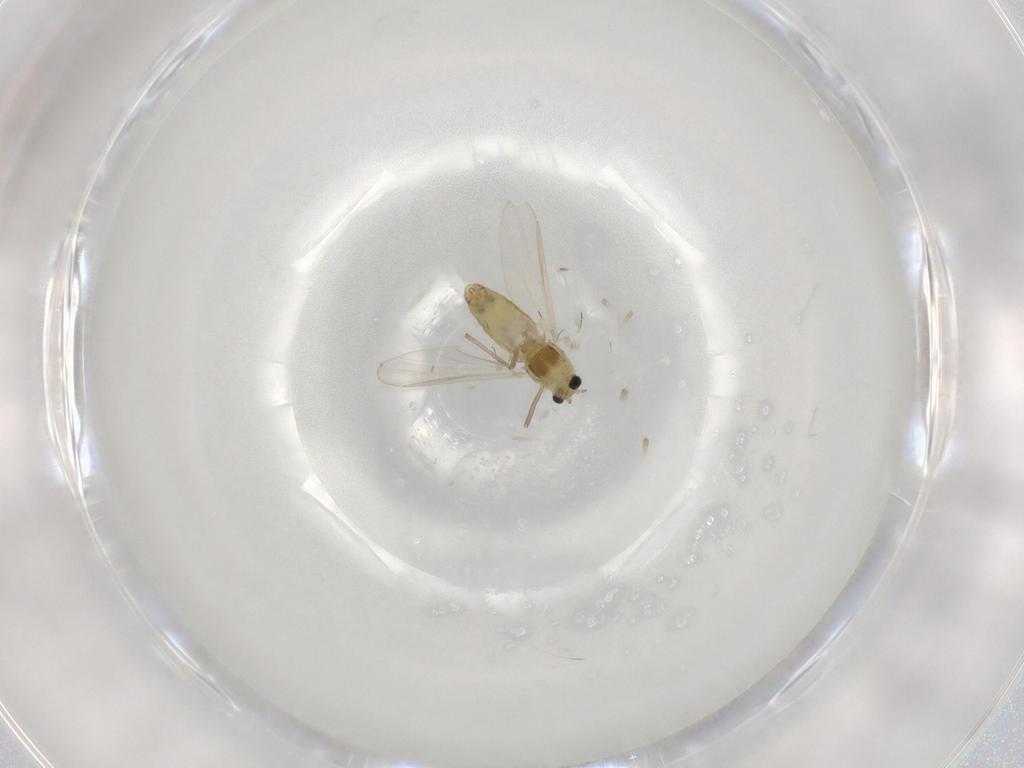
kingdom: Animalia
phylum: Arthropoda
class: Insecta
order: Diptera
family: Chironomidae
